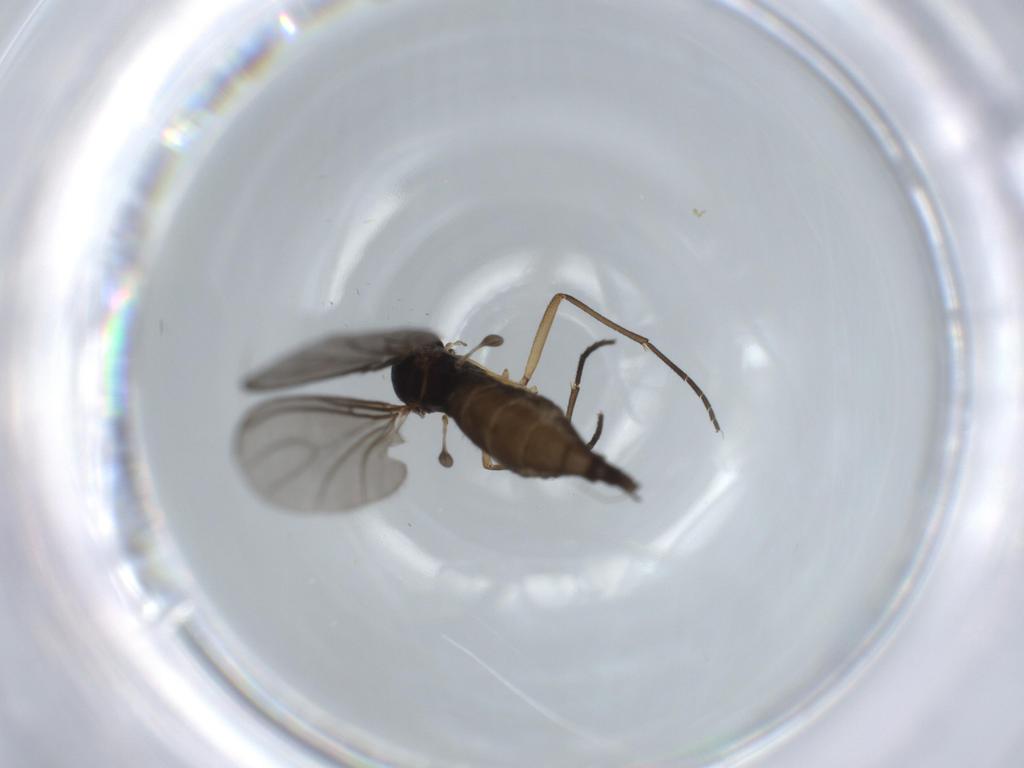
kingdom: Animalia
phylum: Arthropoda
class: Insecta
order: Diptera
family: Sciaridae
